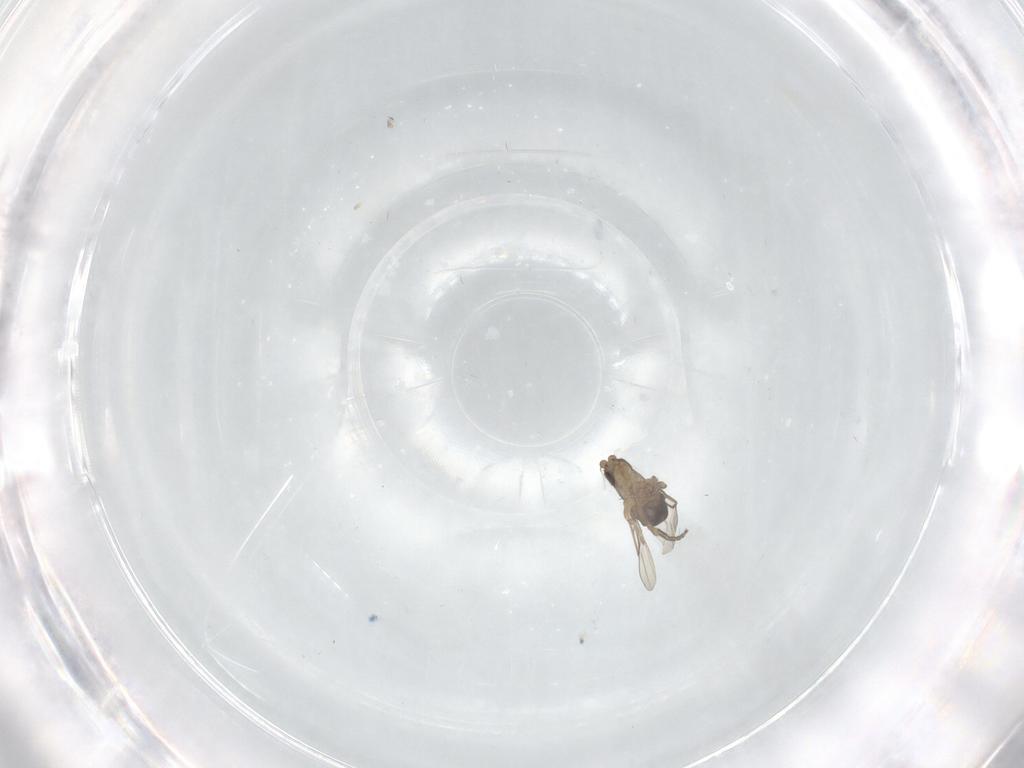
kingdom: Animalia
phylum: Arthropoda
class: Insecta
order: Diptera
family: Phoridae
